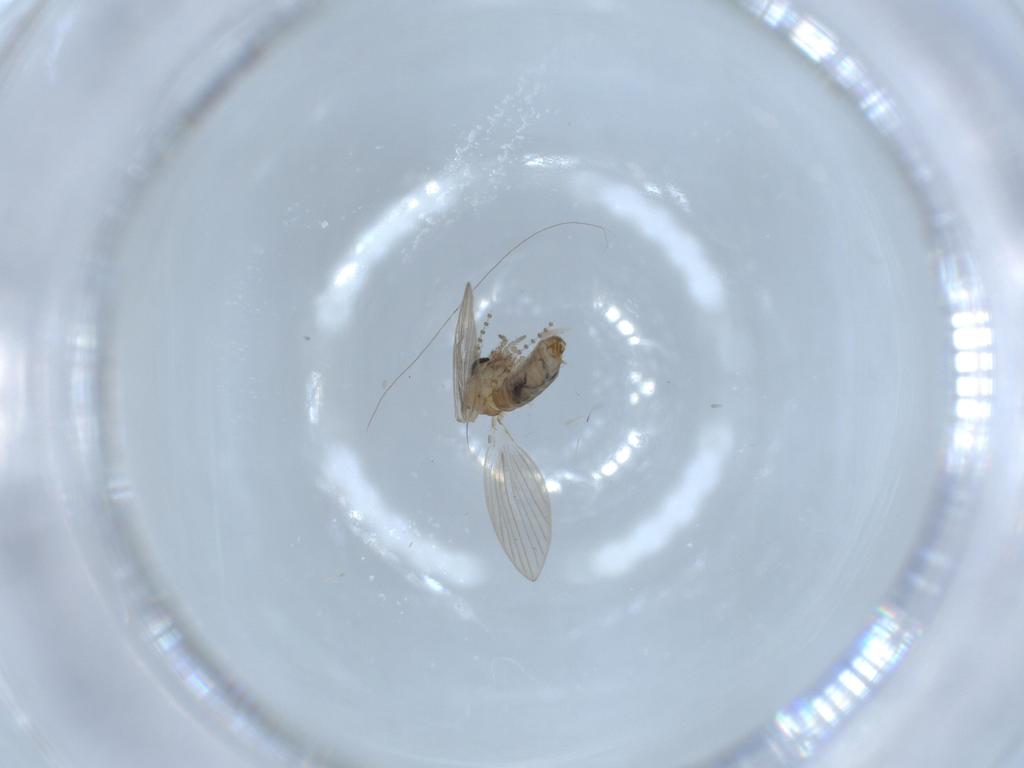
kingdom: Animalia
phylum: Arthropoda
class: Insecta
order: Diptera
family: Psychodidae
